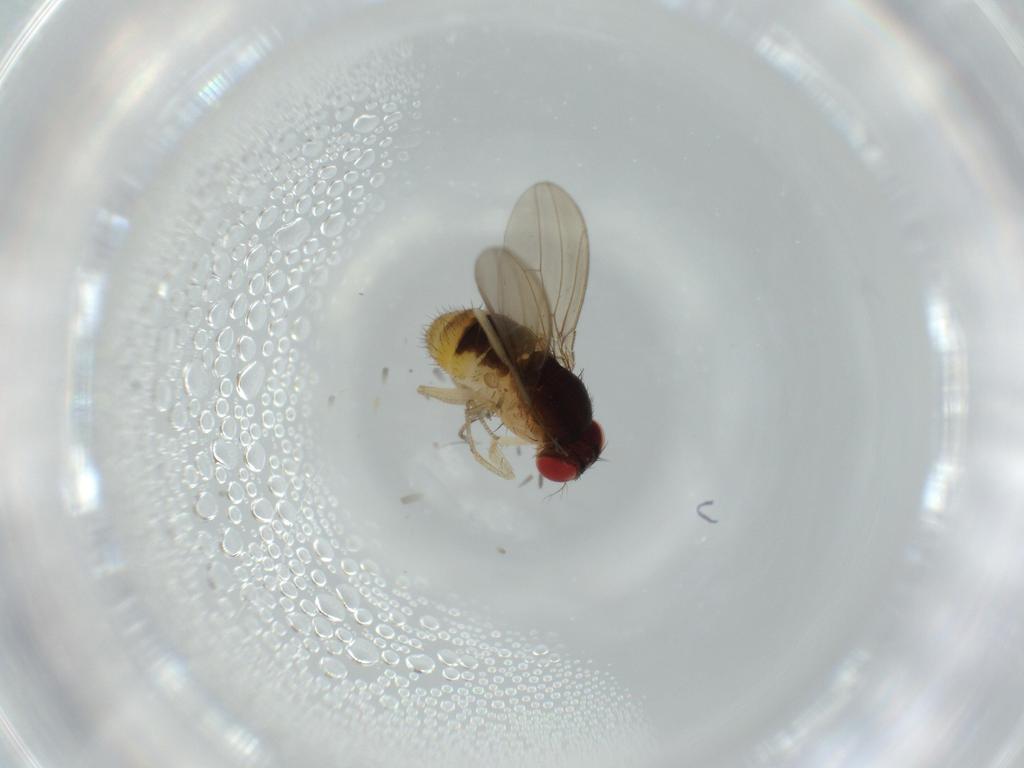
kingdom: Animalia
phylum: Arthropoda
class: Insecta
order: Diptera
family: Drosophilidae
